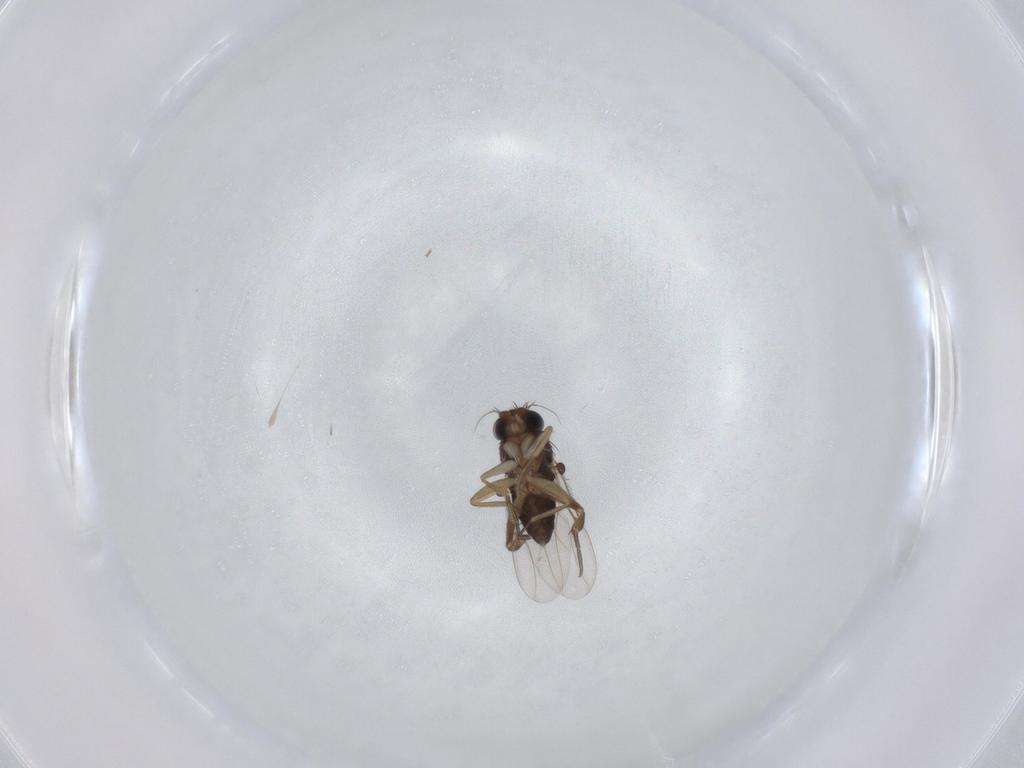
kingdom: Animalia
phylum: Arthropoda
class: Insecta
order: Diptera
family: Phoridae
